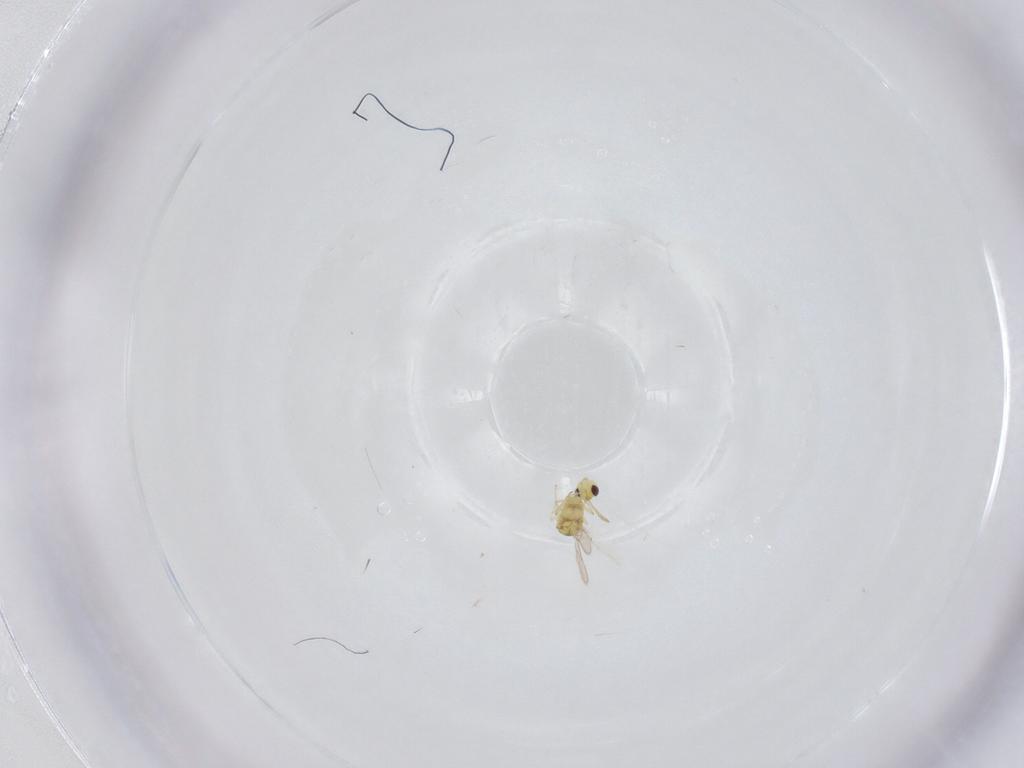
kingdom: Animalia
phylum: Arthropoda
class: Insecta
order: Hymenoptera
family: Aphelinidae
